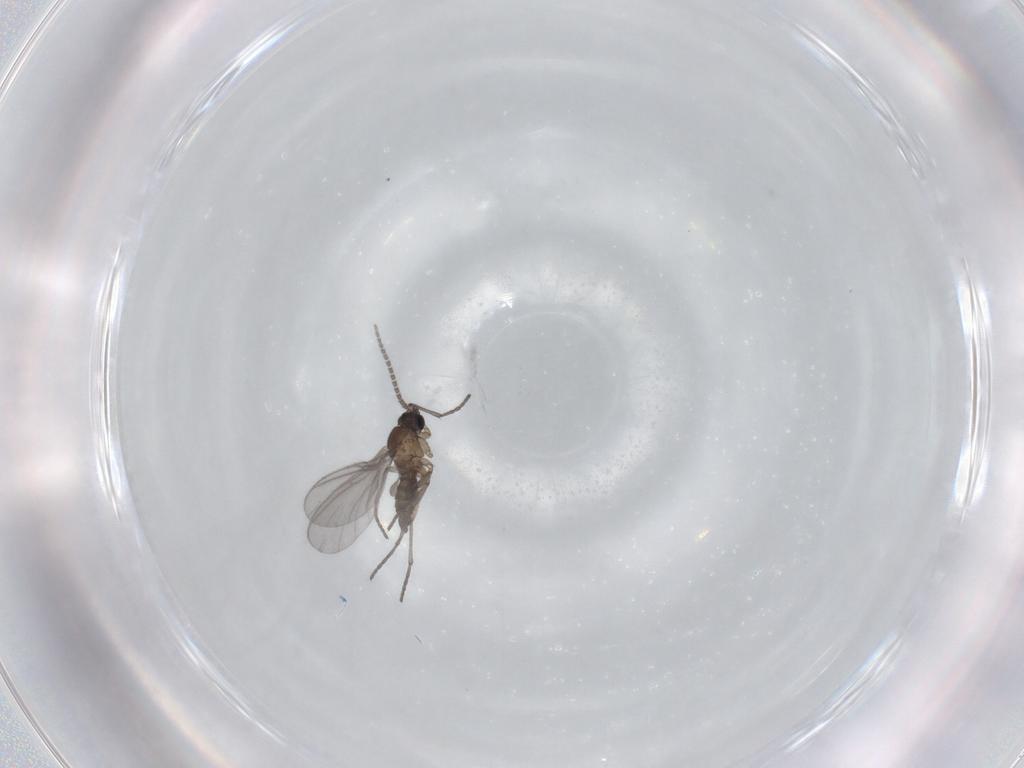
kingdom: Animalia
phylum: Arthropoda
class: Insecta
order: Diptera
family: Sciaridae
